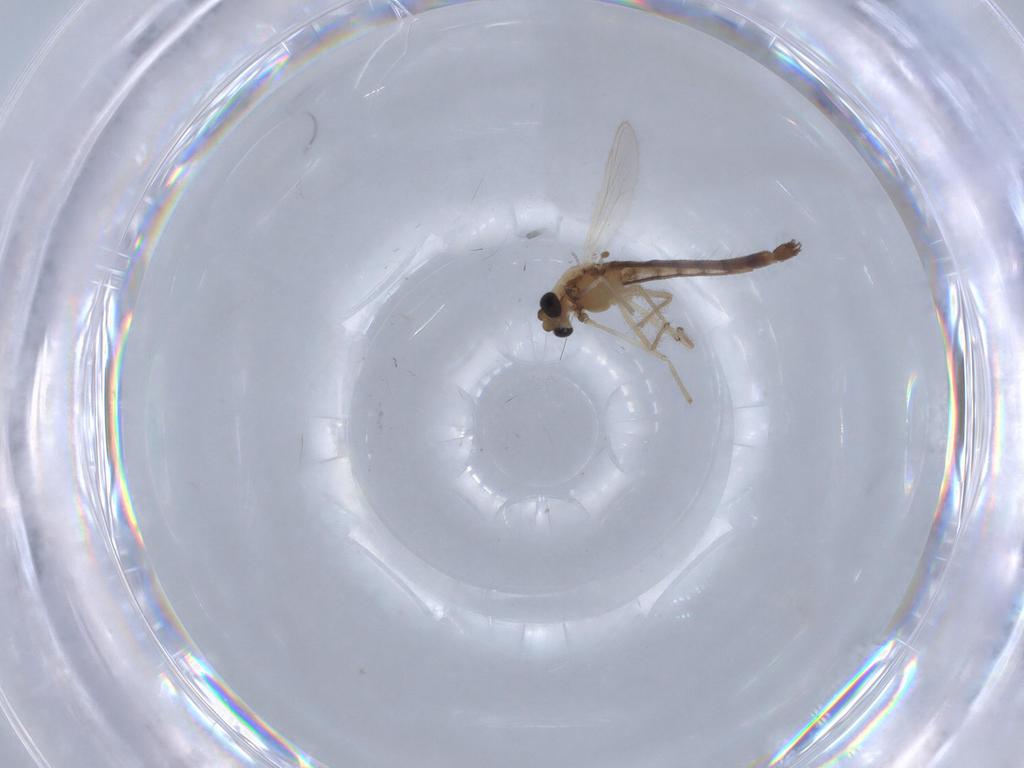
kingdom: Animalia
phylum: Arthropoda
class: Insecta
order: Diptera
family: Chironomidae
